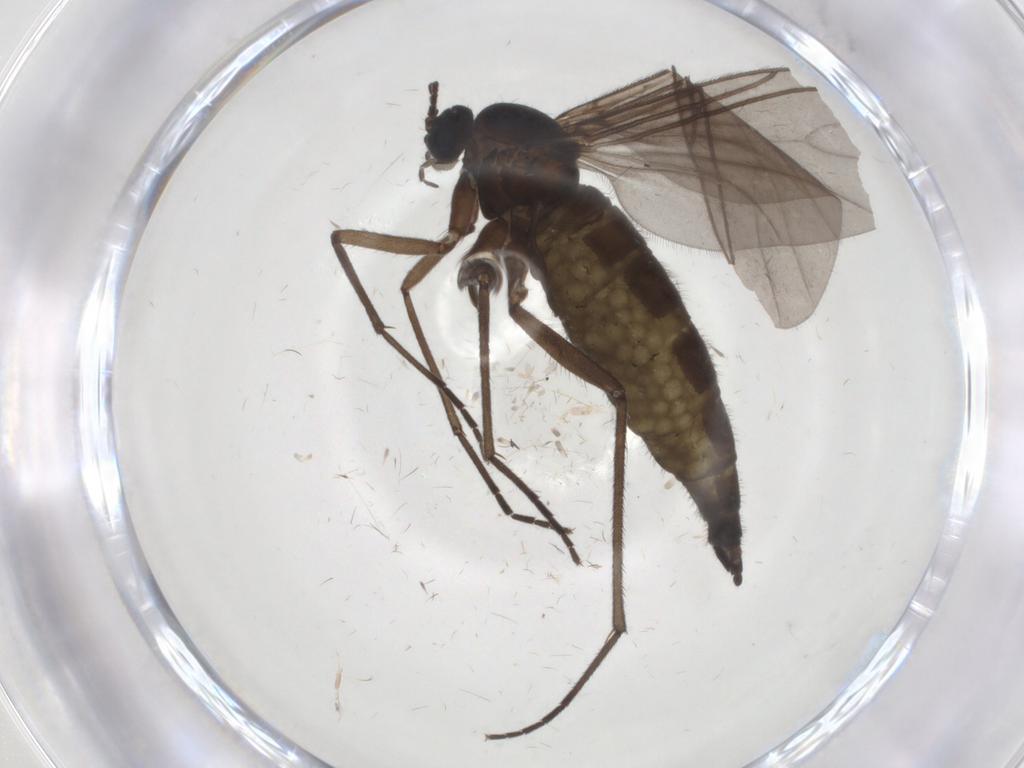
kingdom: Animalia
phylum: Arthropoda
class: Insecta
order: Diptera
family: Sciaridae
